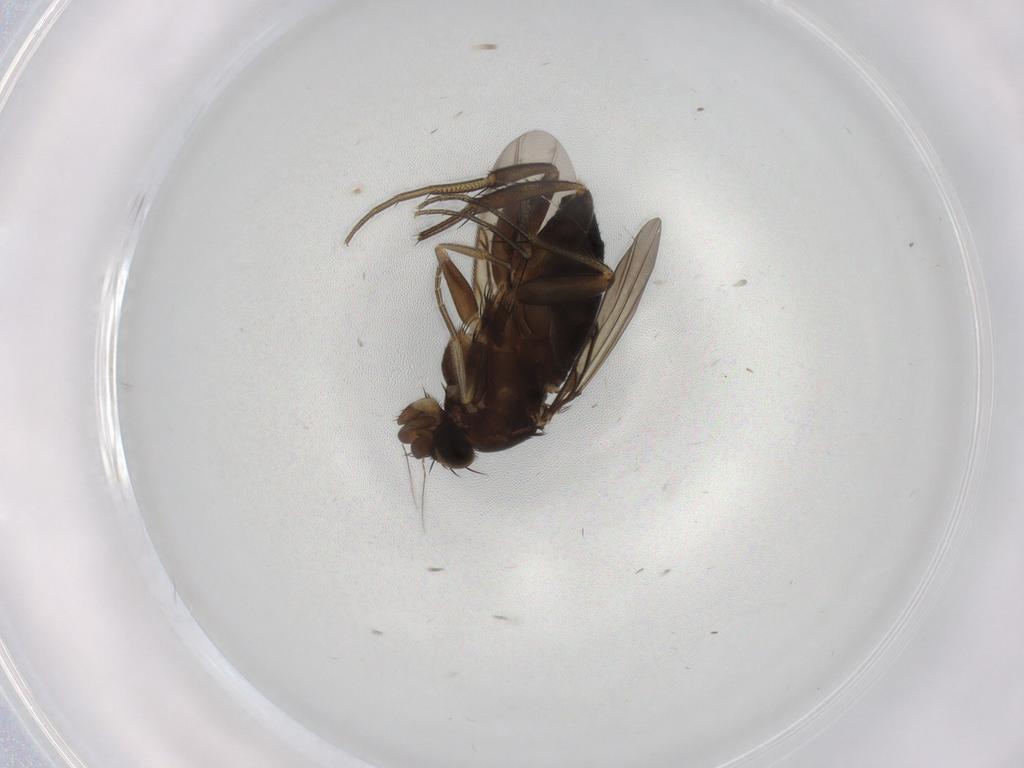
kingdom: Animalia
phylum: Arthropoda
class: Insecta
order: Diptera
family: Phoridae
